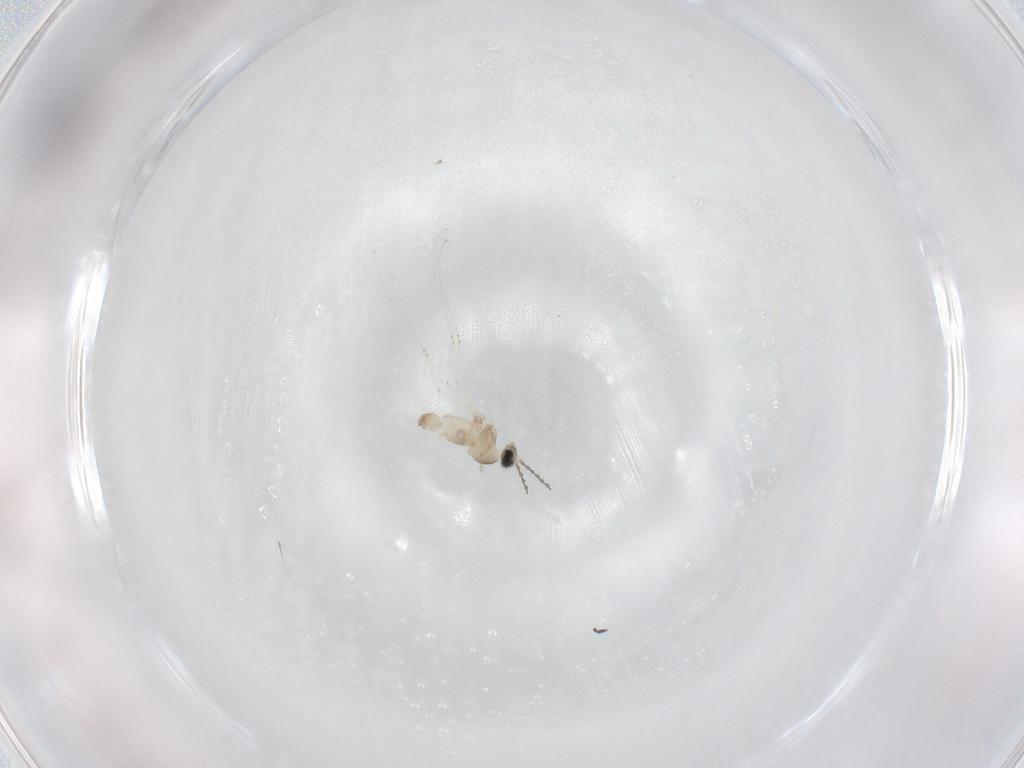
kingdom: Animalia
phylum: Arthropoda
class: Insecta
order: Diptera
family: Cecidomyiidae
